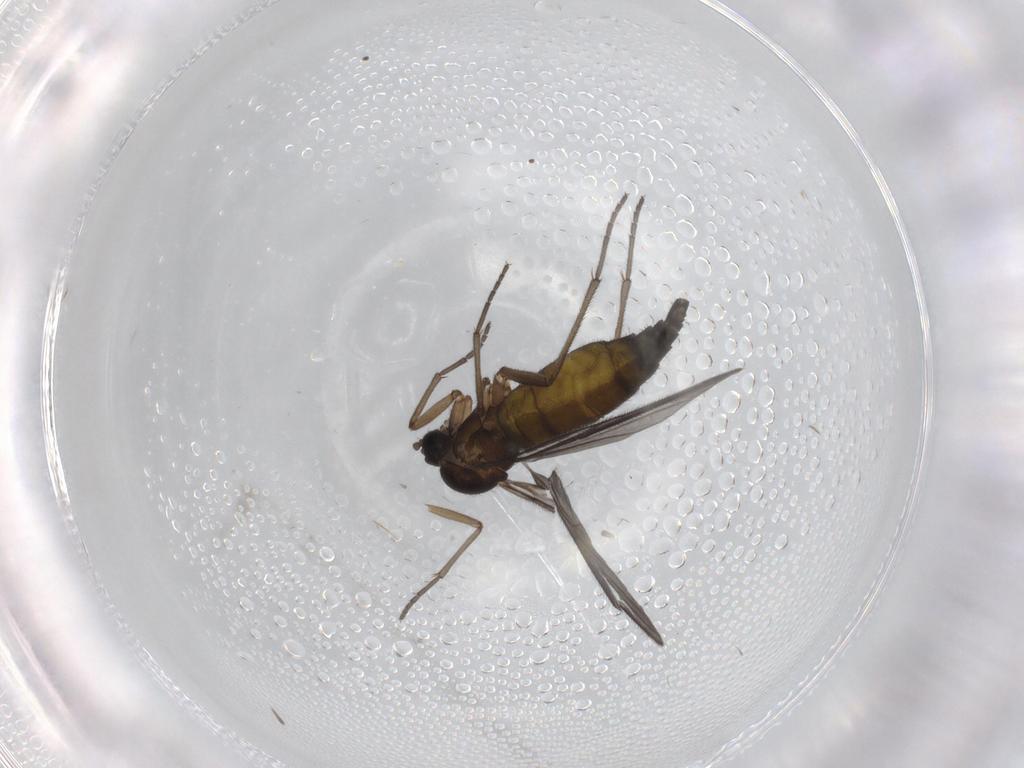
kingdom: Animalia
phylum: Arthropoda
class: Insecta
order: Diptera
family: Sciaridae
